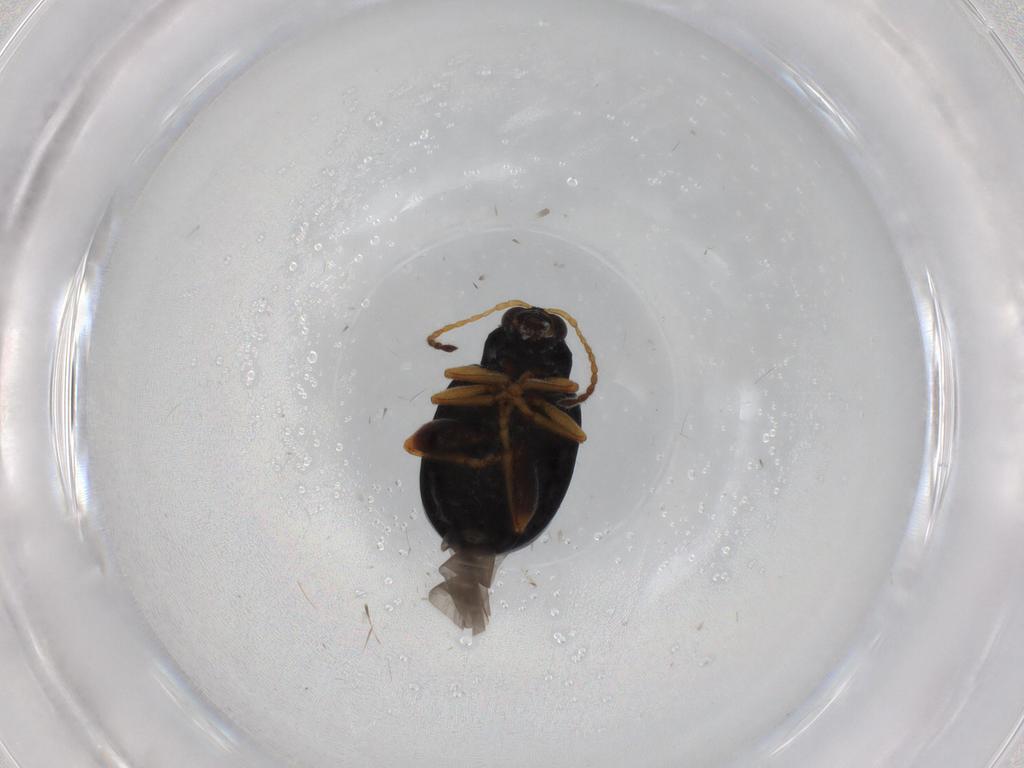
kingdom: Animalia
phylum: Arthropoda
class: Insecta
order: Coleoptera
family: Chrysomelidae
